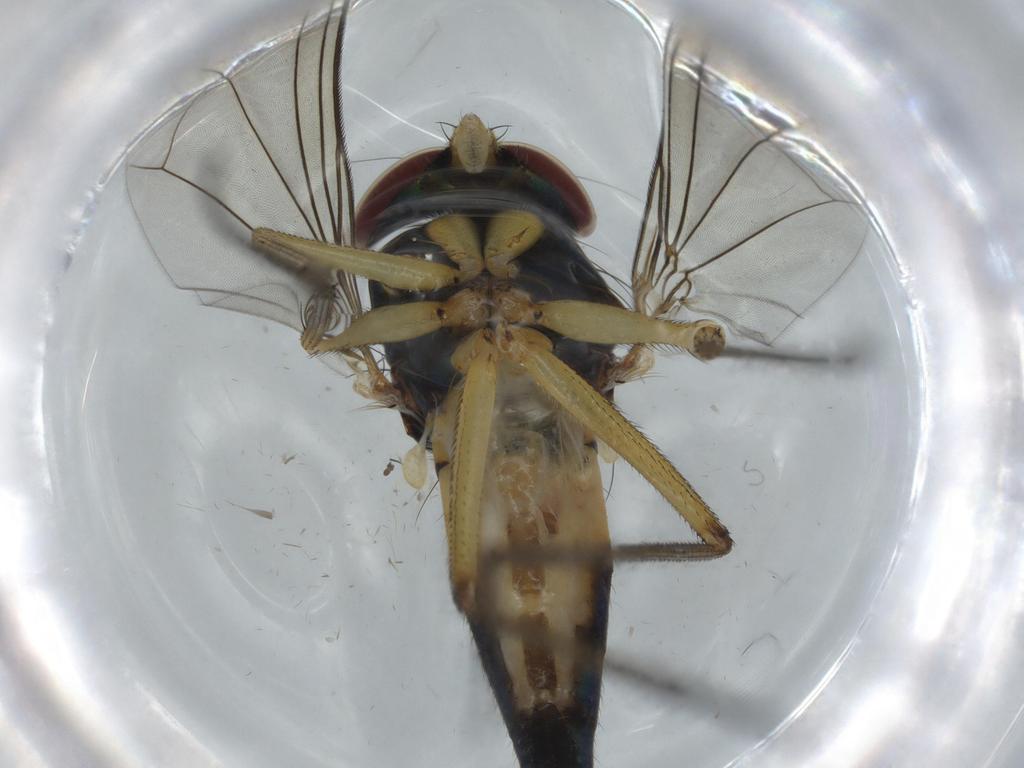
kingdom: Animalia
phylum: Arthropoda
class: Insecta
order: Diptera
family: Dolichopodidae
